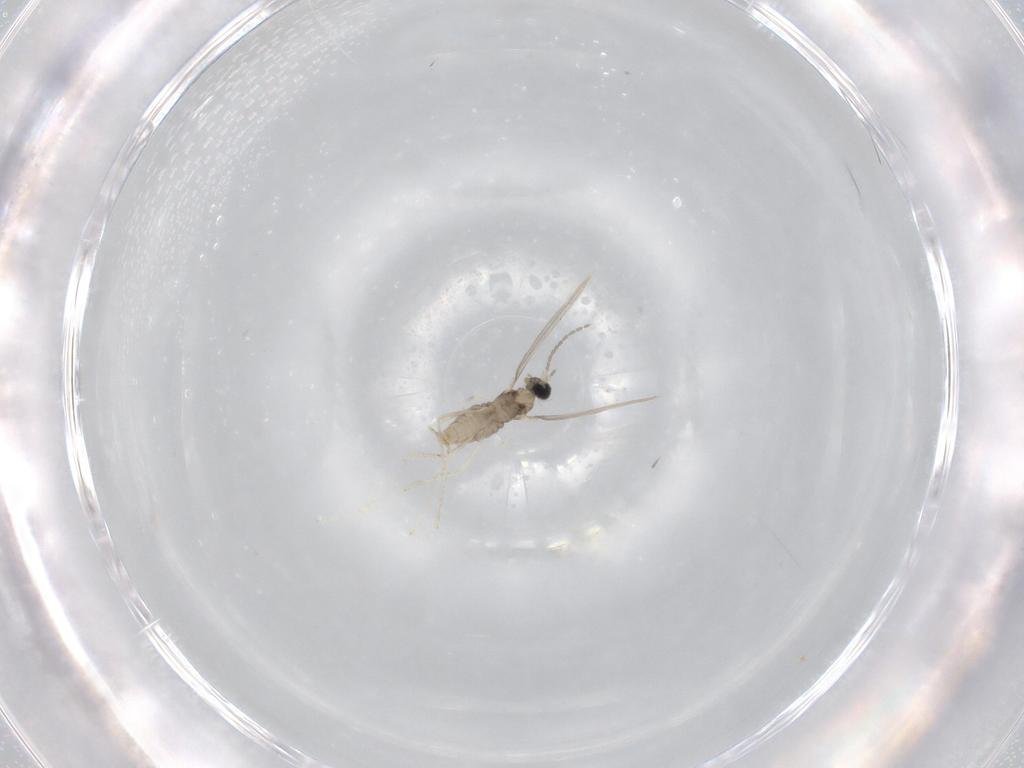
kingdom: Animalia
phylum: Arthropoda
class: Insecta
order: Diptera
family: Cecidomyiidae
